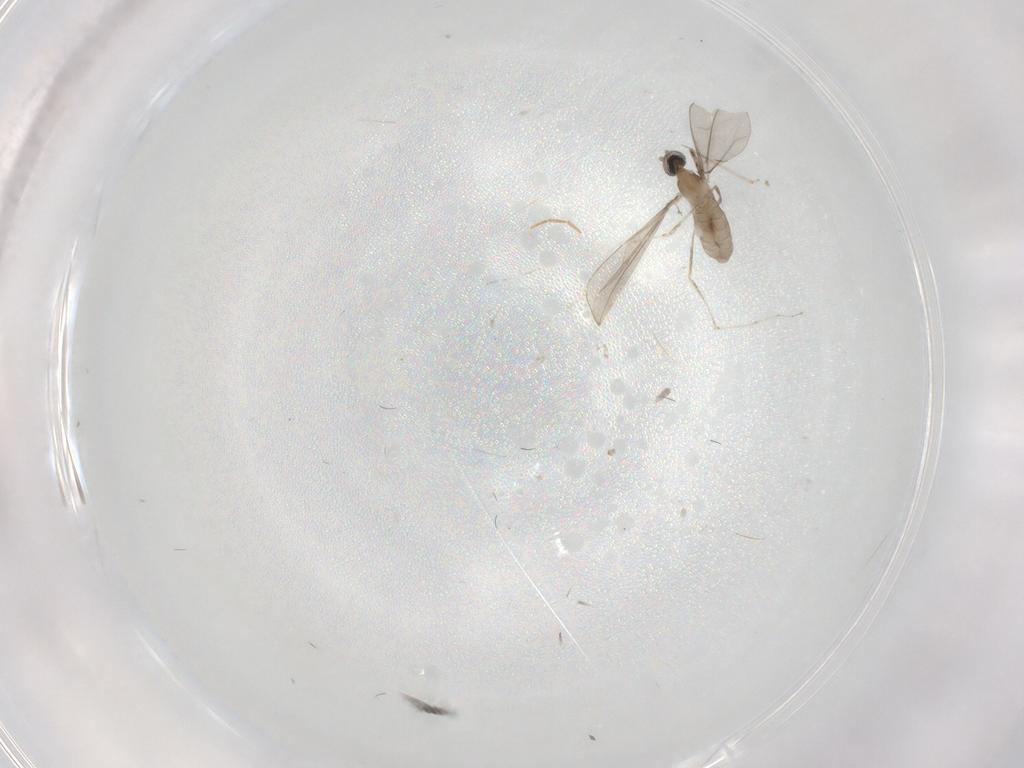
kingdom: Animalia
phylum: Arthropoda
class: Insecta
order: Diptera
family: Cecidomyiidae
